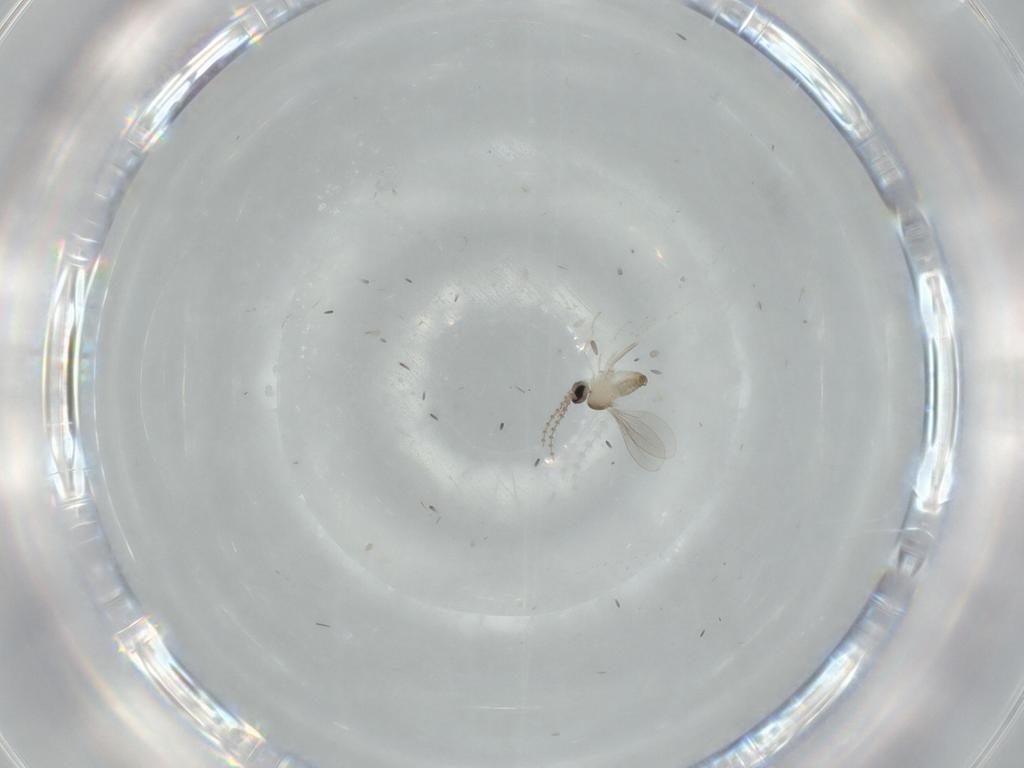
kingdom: Animalia
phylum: Arthropoda
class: Insecta
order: Diptera
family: Cecidomyiidae
